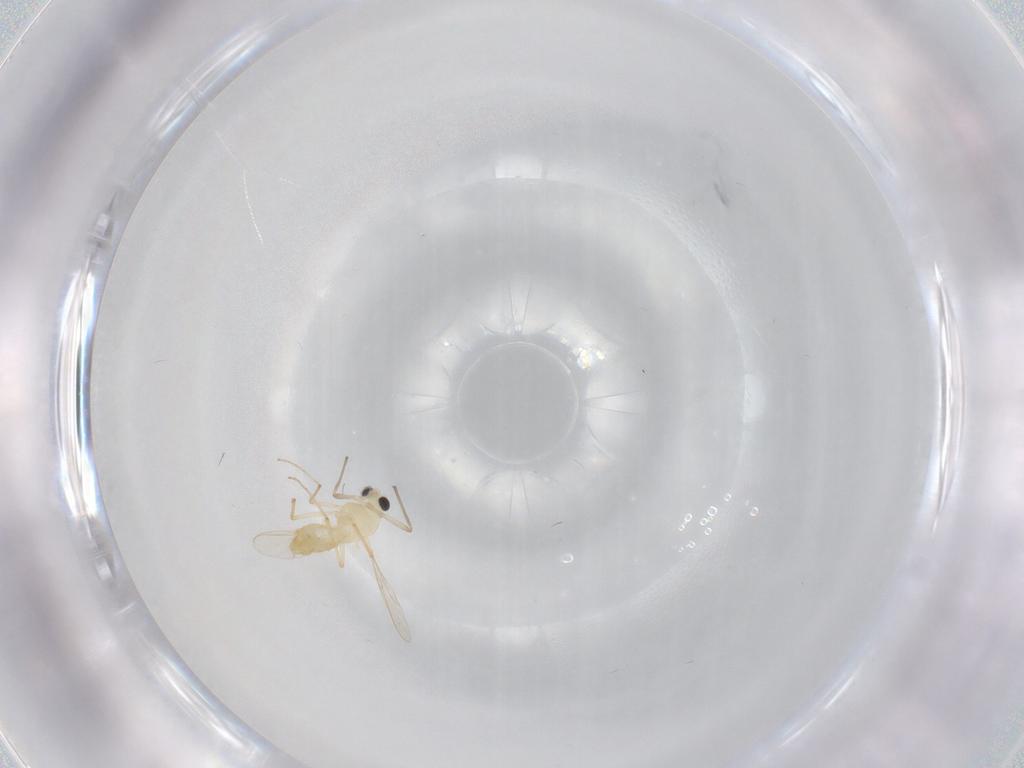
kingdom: Animalia
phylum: Arthropoda
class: Insecta
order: Diptera
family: Chironomidae
